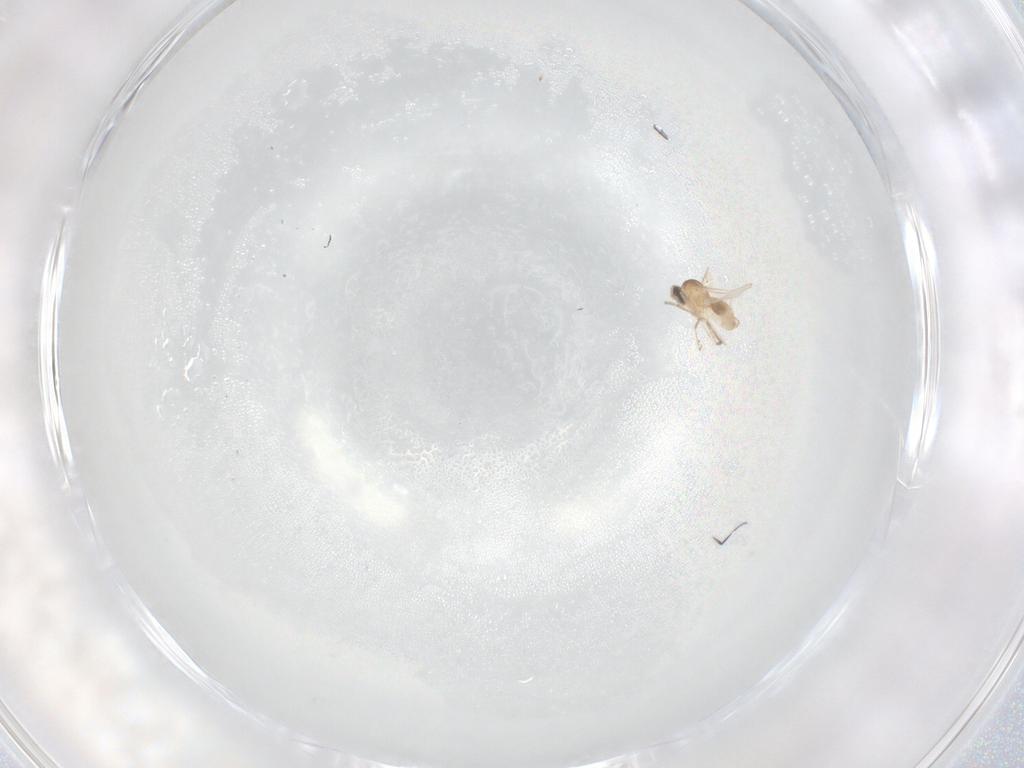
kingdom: Animalia
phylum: Arthropoda
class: Insecta
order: Diptera
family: Cecidomyiidae
